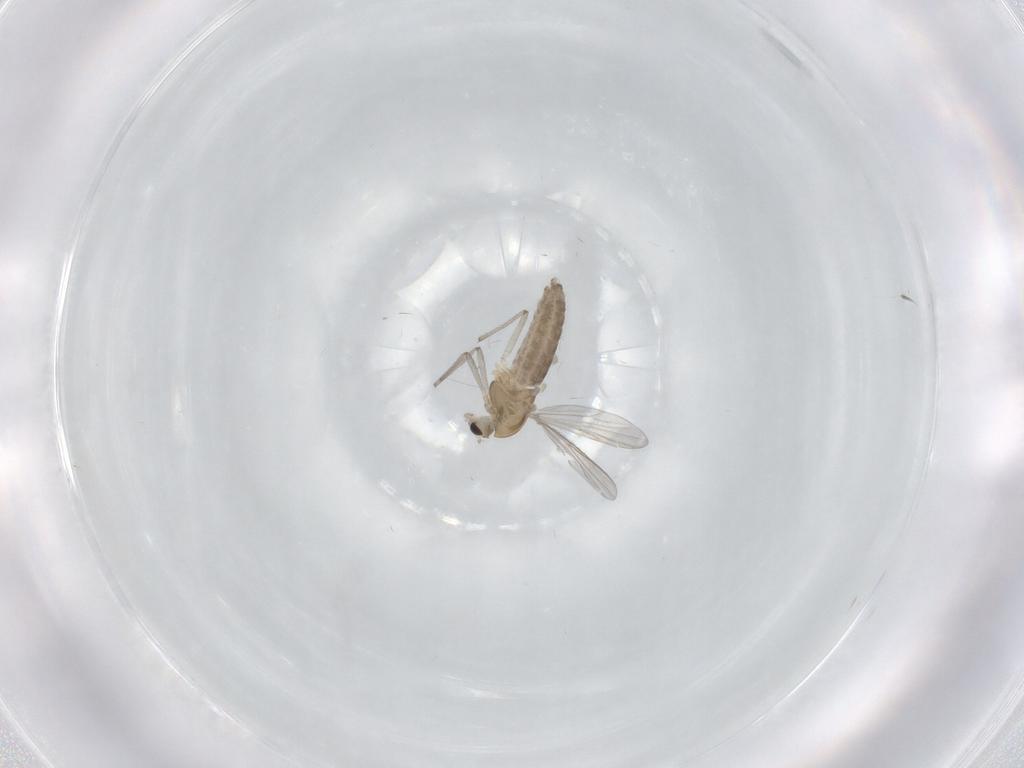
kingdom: Animalia
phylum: Arthropoda
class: Insecta
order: Diptera
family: Chironomidae
